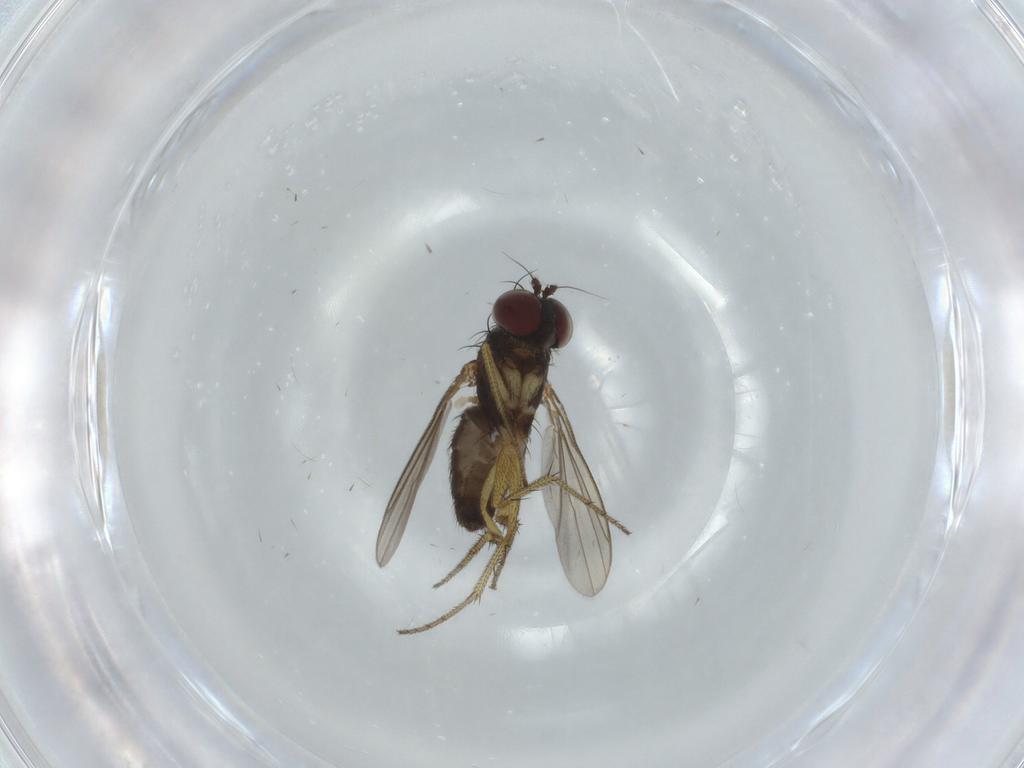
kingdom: Animalia
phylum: Arthropoda
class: Insecta
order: Diptera
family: Dolichopodidae
